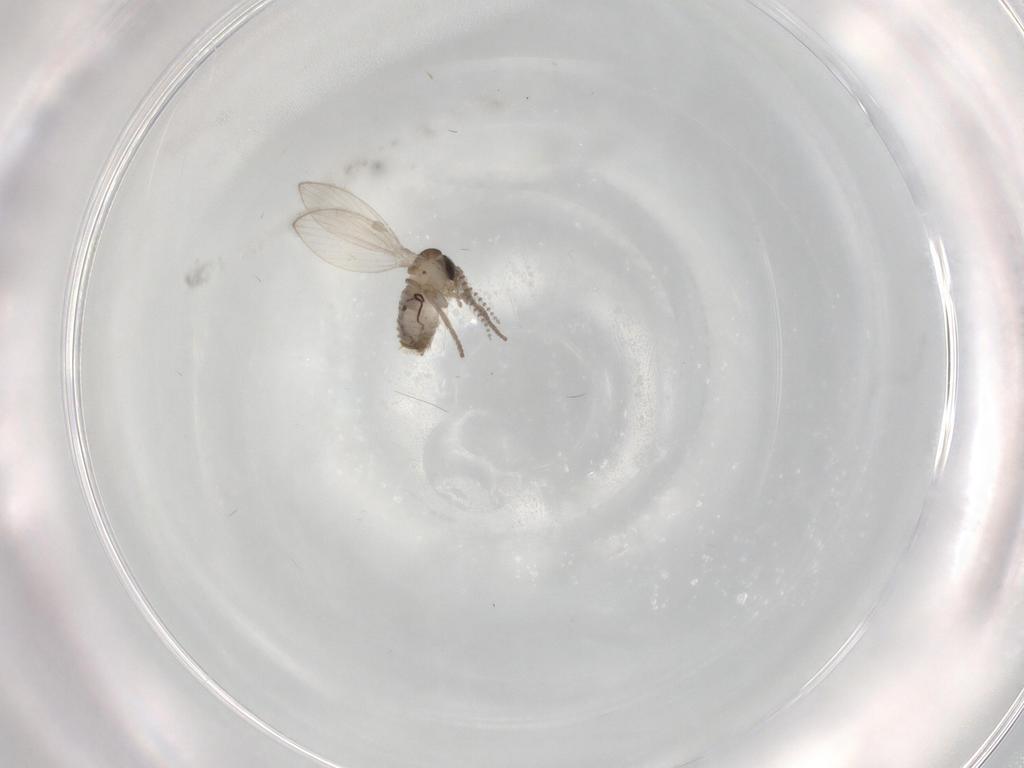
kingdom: Animalia
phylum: Arthropoda
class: Insecta
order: Diptera
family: Psychodidae
